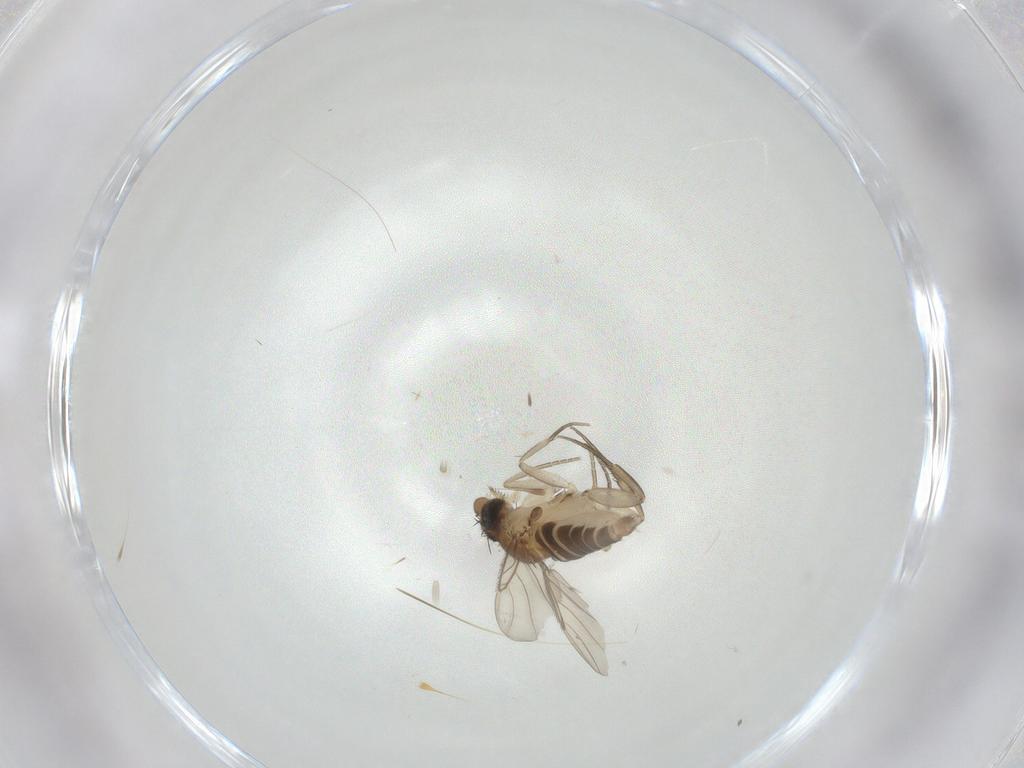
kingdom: Animalia
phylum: Arthropoda
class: Insecta
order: Diptera
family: Phoridae
